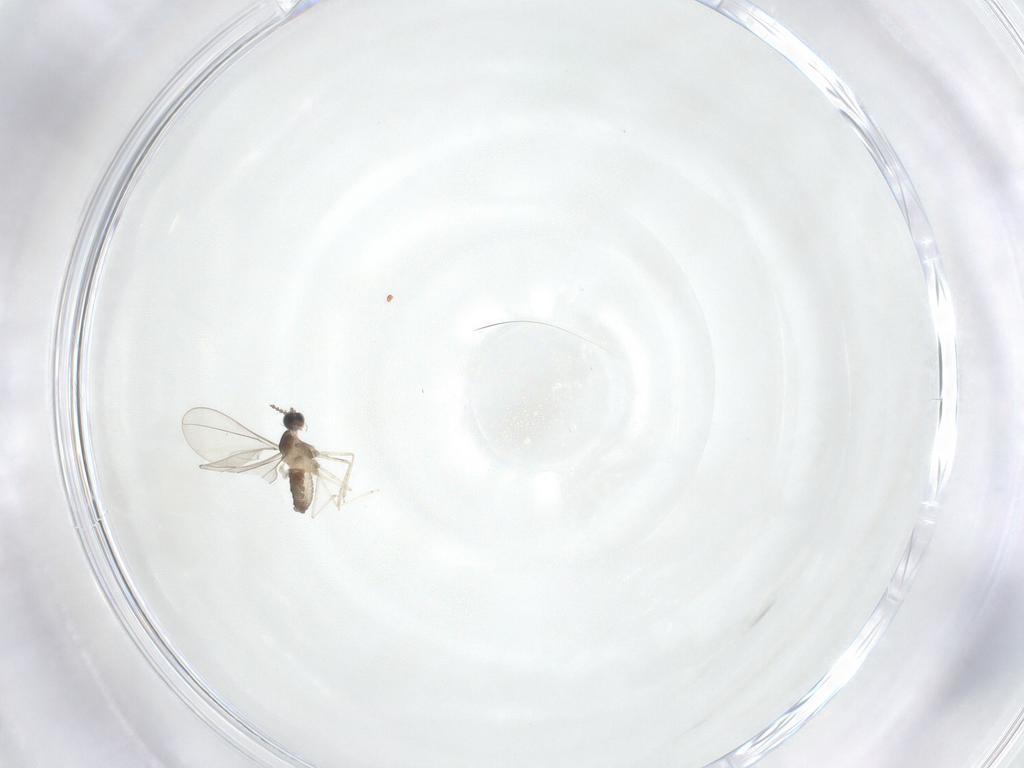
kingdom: Animalia
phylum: Arthropoda
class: Insecta
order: Diptera
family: Cecidomyiidae
